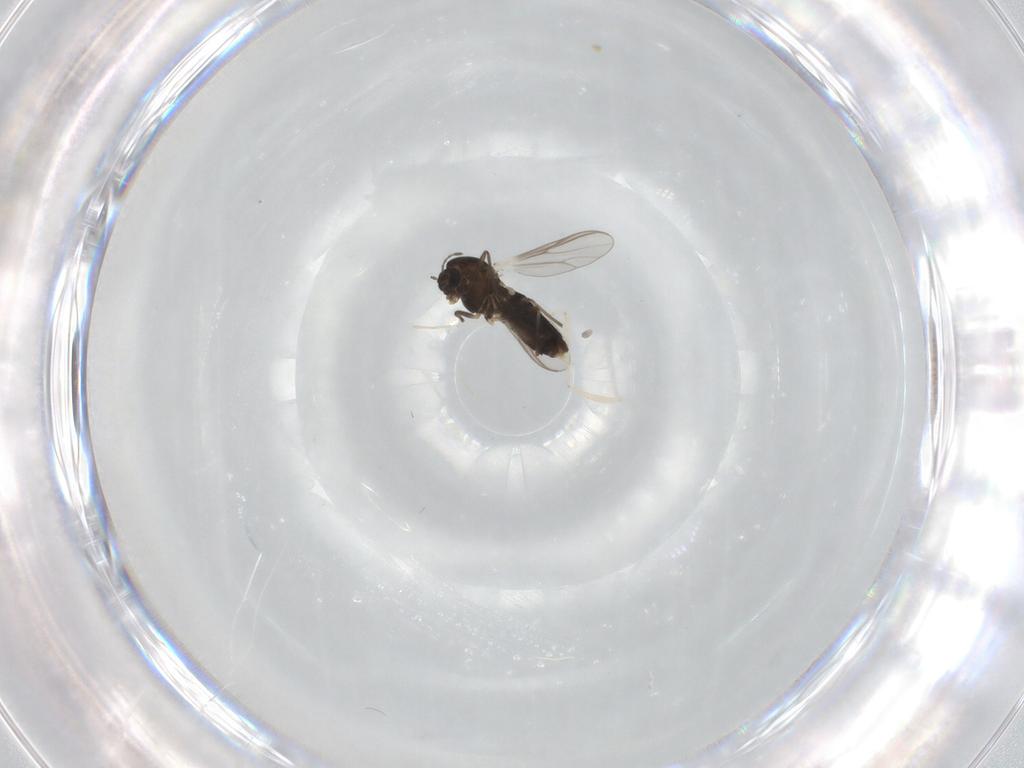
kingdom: Animalia
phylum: Arthropoda
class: Insecta
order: Diptera
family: Chironomidae
